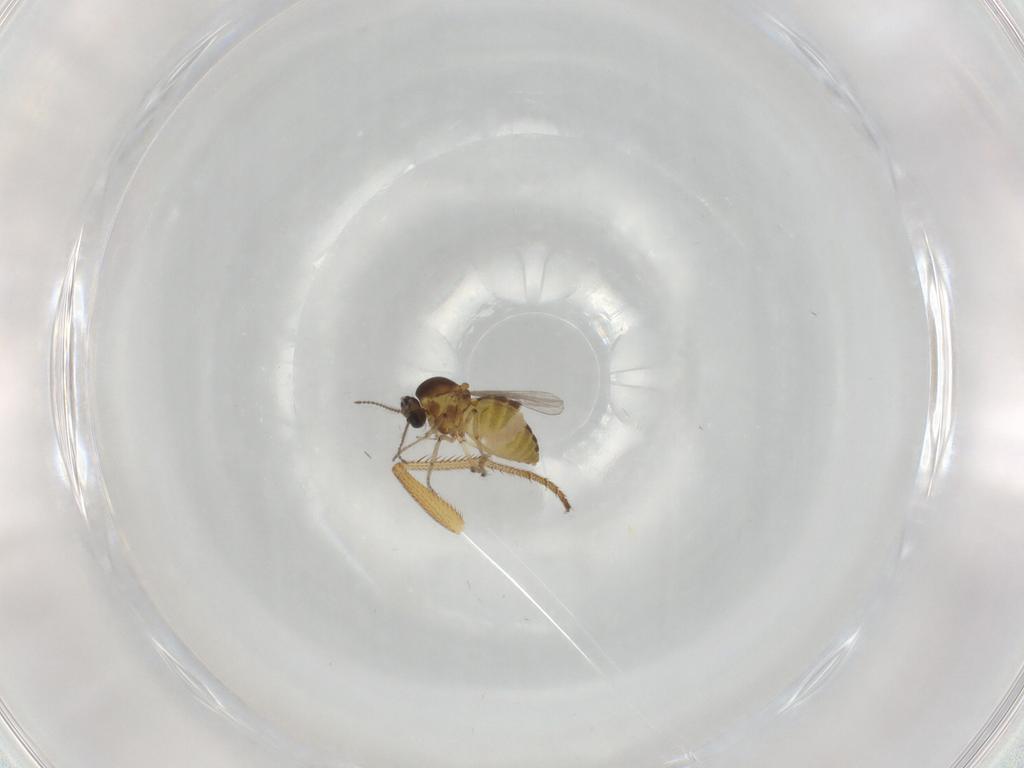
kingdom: Animalia
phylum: Arthropoda
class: Insecta
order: Diptera
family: Ceratopogonidae
